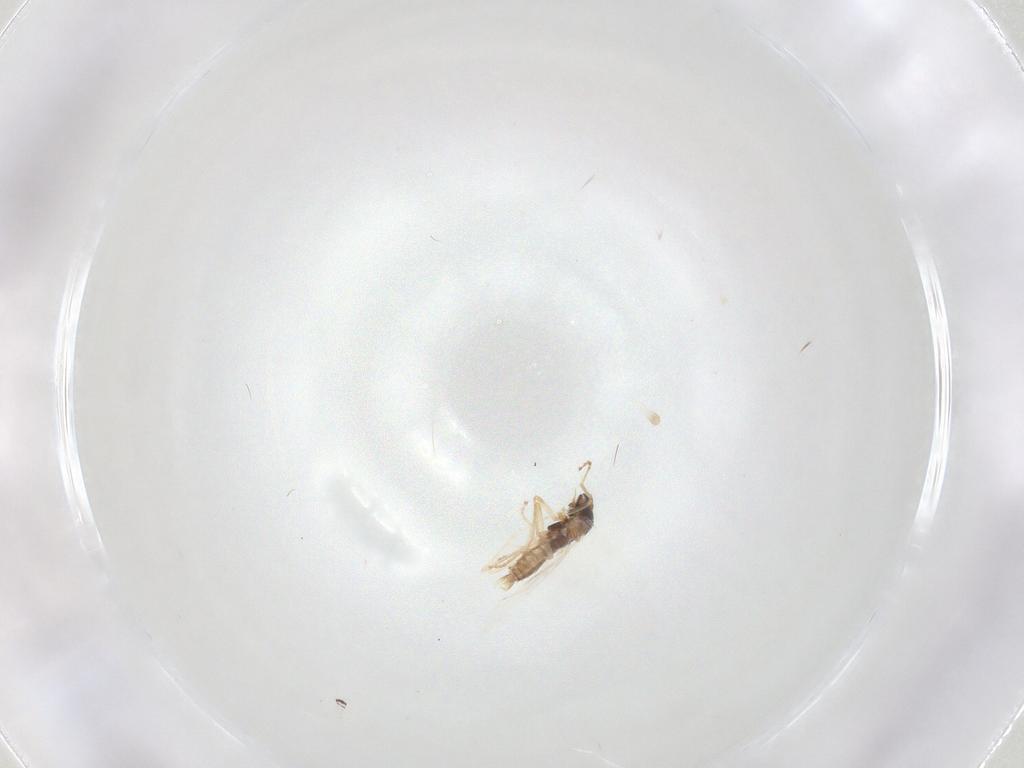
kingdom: Animalia
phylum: Arthropoda
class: Insecta
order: Diptera
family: Cecidomyiidae
